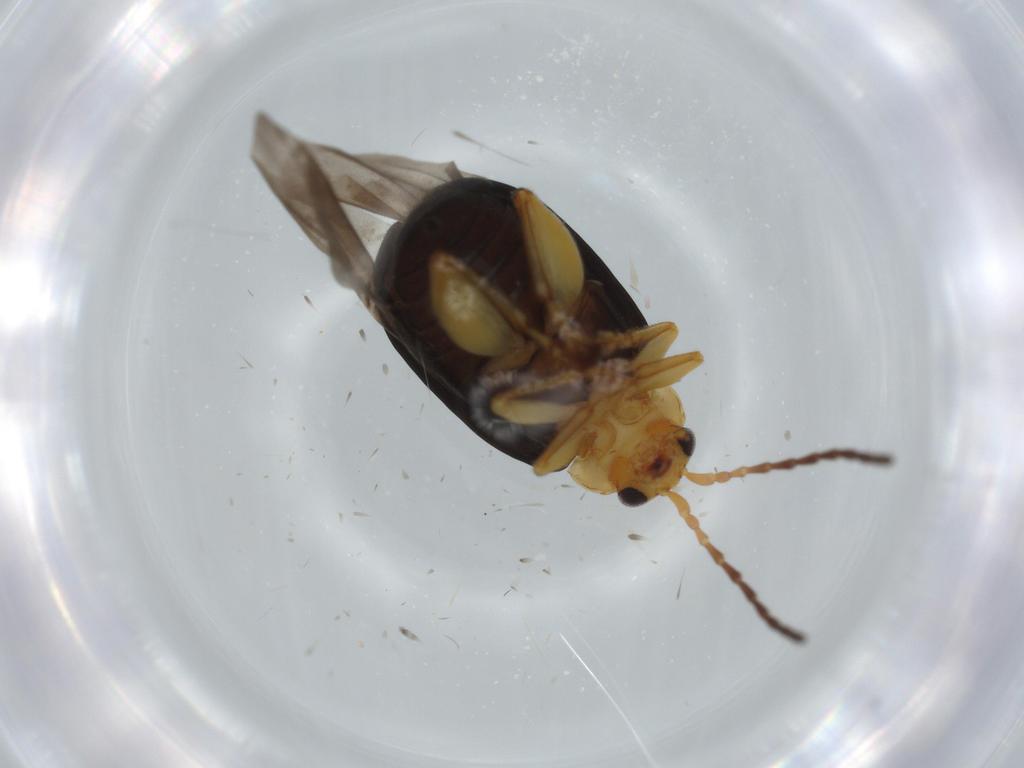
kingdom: Animalia
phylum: Arthropoda
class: Insecta
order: Coleoptera
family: Chrysomelidae
